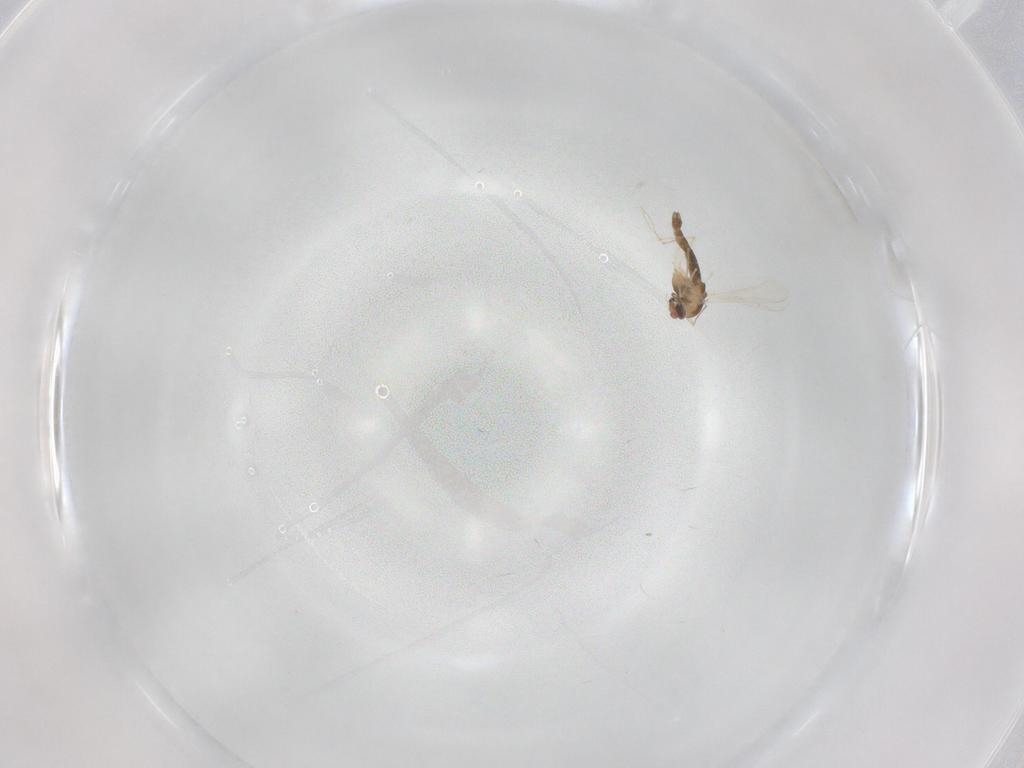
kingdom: Animalia
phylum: Arthropoda
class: Insecta
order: Diptera
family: Chironomidae
